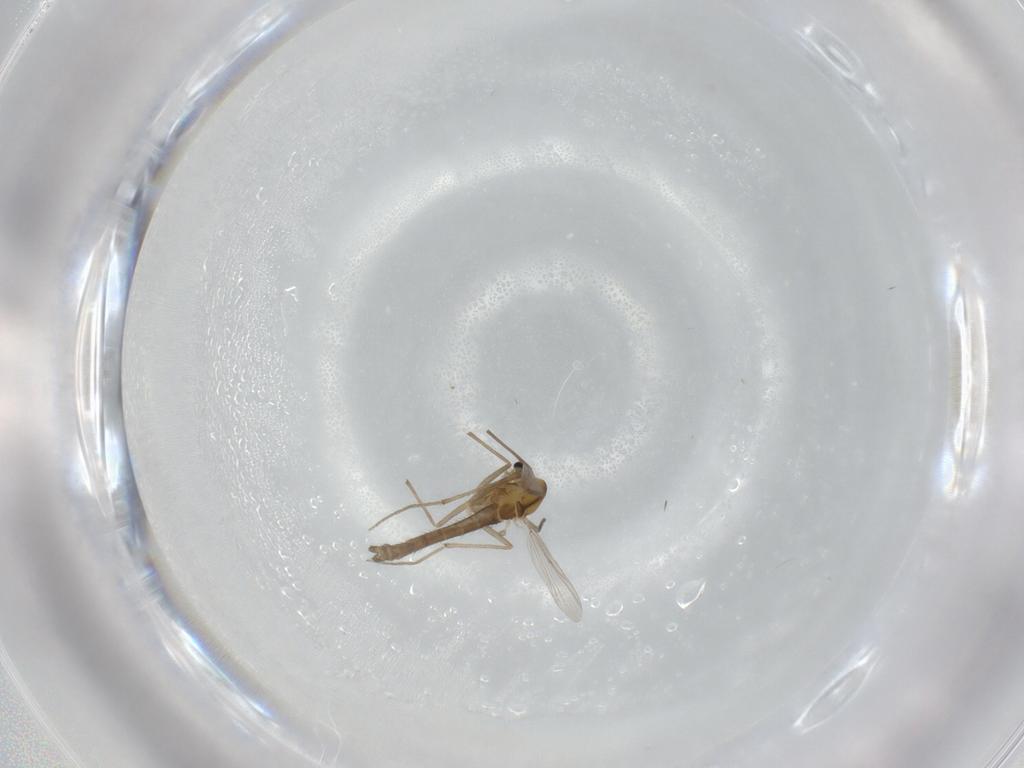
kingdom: Animalia
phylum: Arthropoda
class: Insecta
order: Diptera
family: Chironomidae
